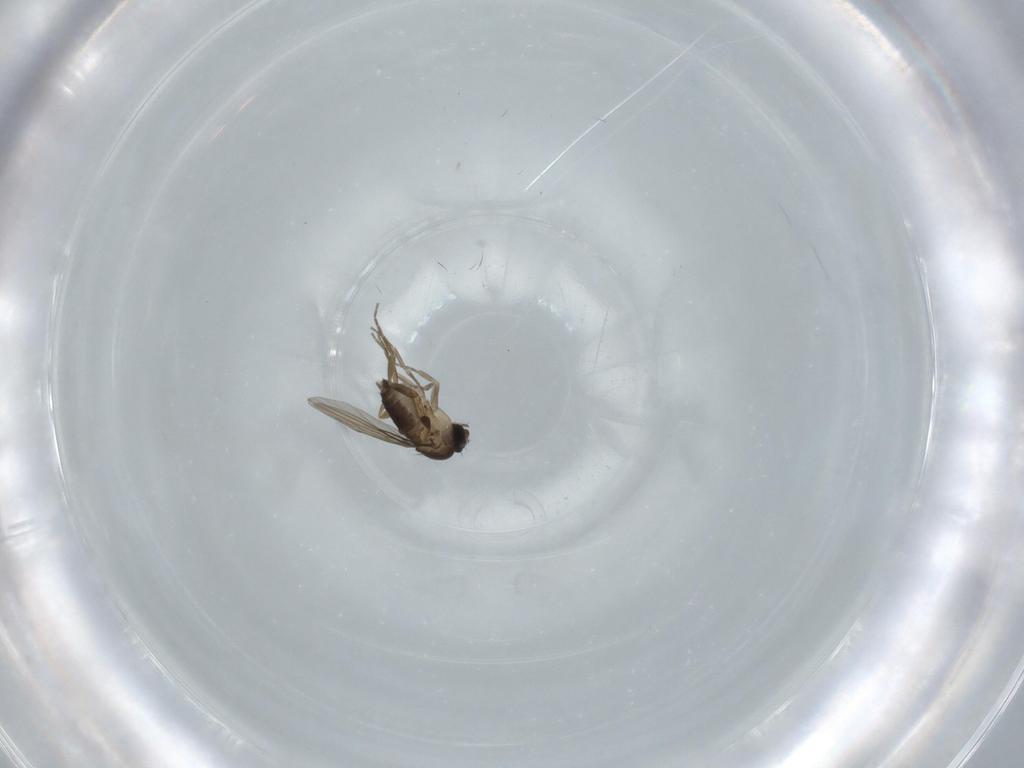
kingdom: Animalia
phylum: Arthropoda
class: Insecta
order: Diptera
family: Phoridae
